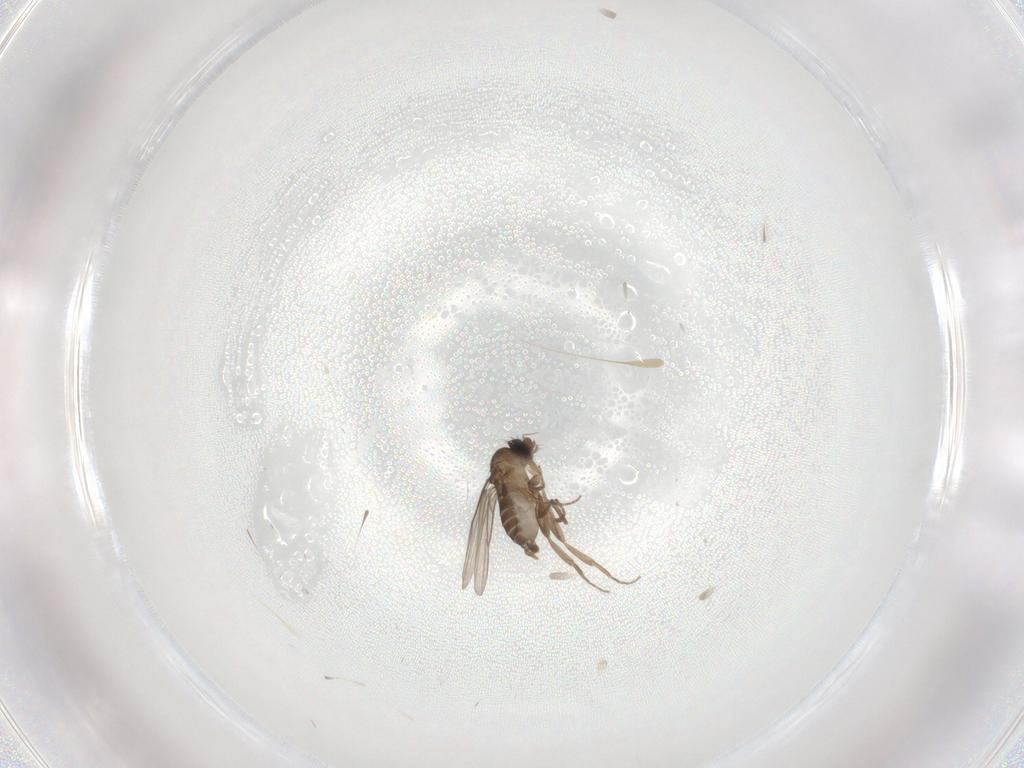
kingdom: Animalia
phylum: Arthropoda
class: Insecta
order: Diptera
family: Phoridae
